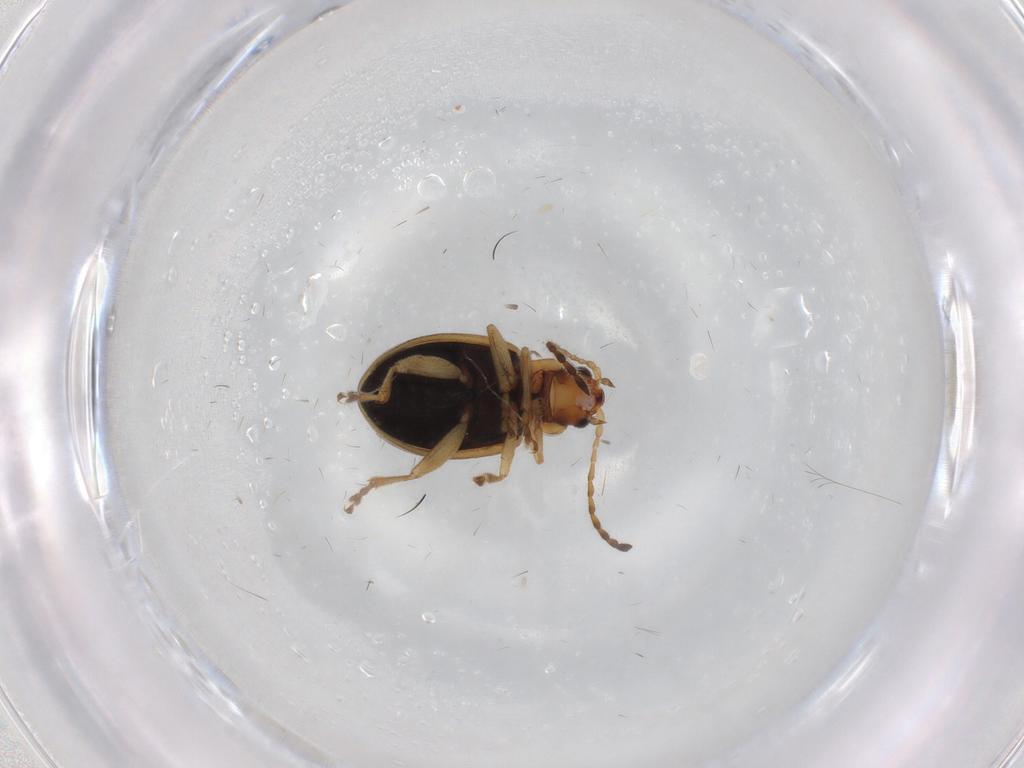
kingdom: Animalia
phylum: Arthropoda
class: Insecta
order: Coleoptera
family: Chrysomelidae
